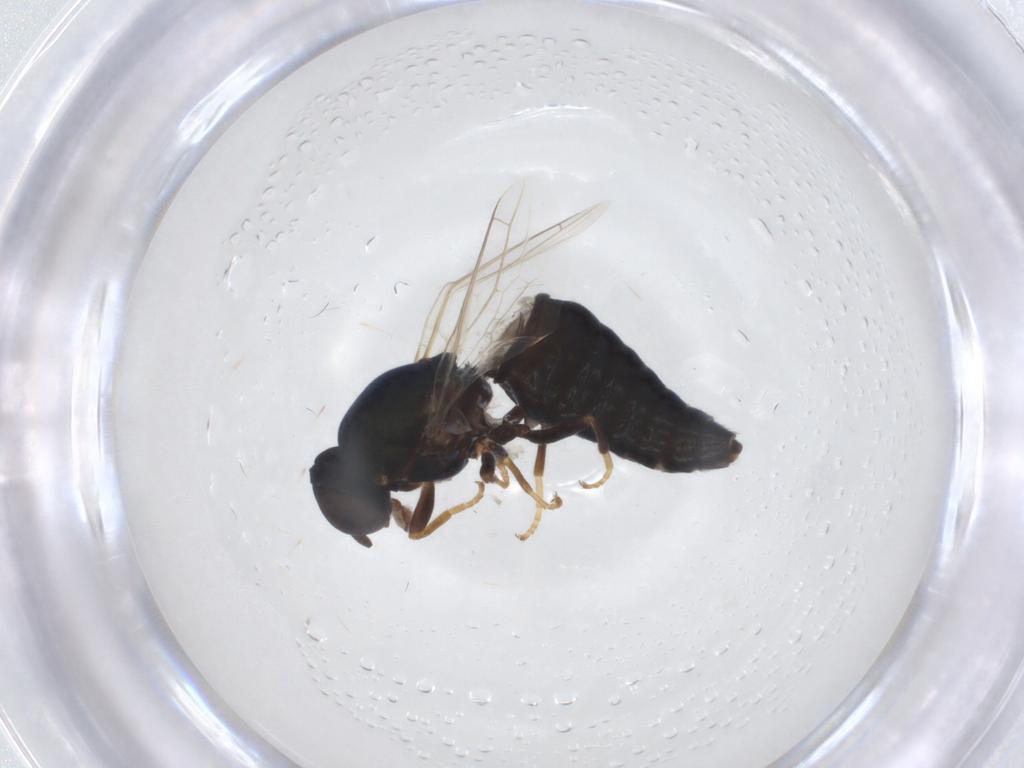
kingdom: Animalia
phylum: Arthropoda
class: Insecta
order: Diptera
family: Scenopinidae
